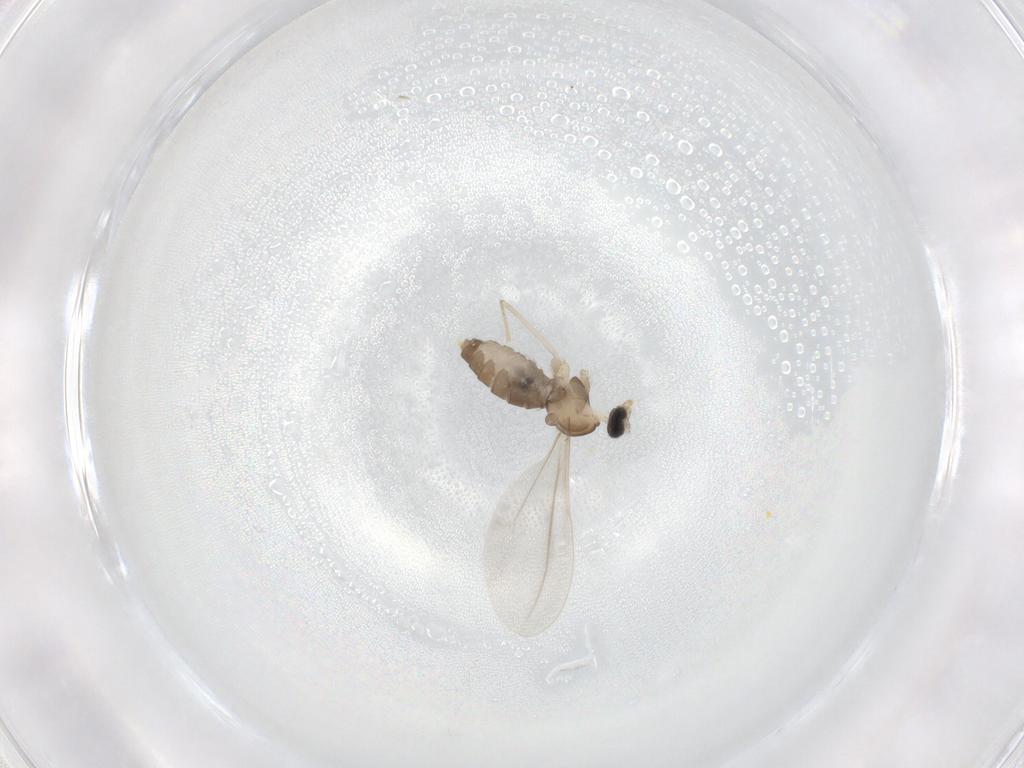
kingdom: Animalia
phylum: Arthropoda
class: Insecta
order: Diptera
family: Cecidomyiidae
